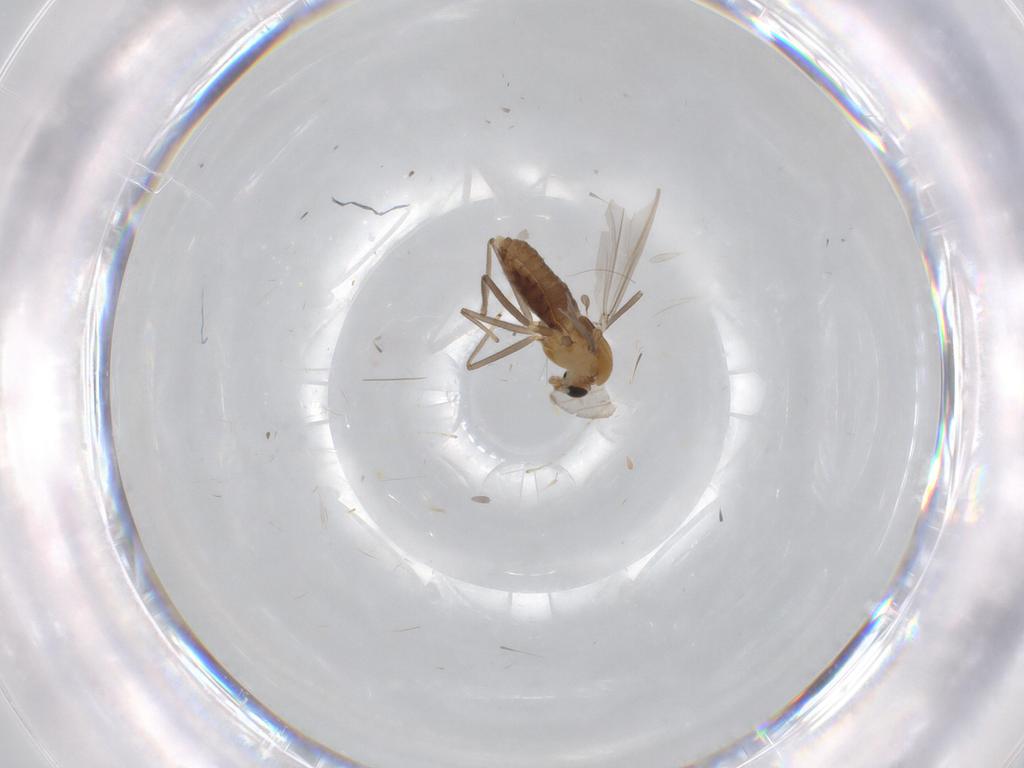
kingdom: Animalia
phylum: Arthropoda
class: Insecta
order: Diptera
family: Chironomidae
